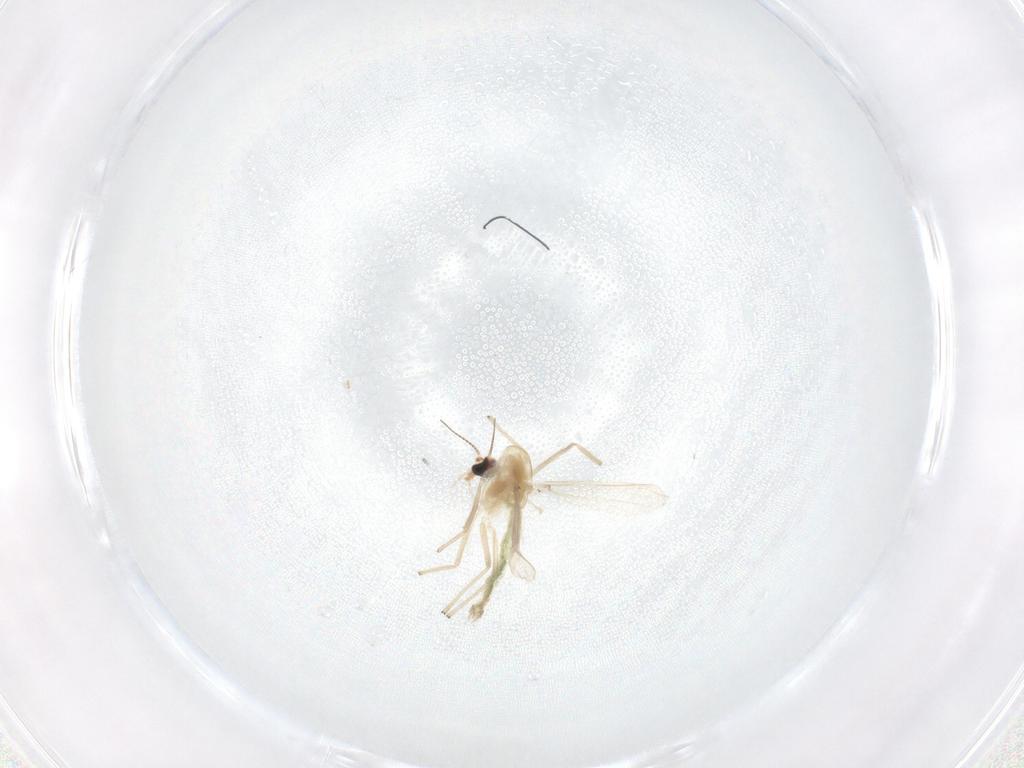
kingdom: Animalia
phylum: Arthropoda
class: Insecta
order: Diptera
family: Chironomidae
